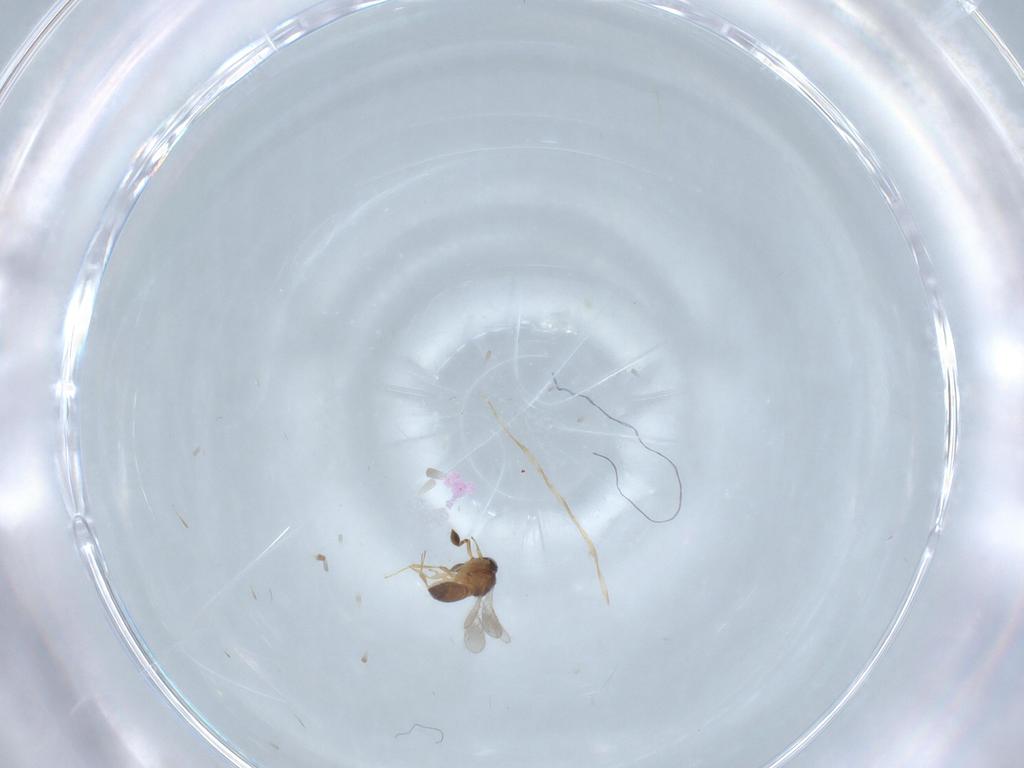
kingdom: Animalia
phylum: Arthropoda
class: Insecta
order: Hymenoptera
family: Scelionidae
